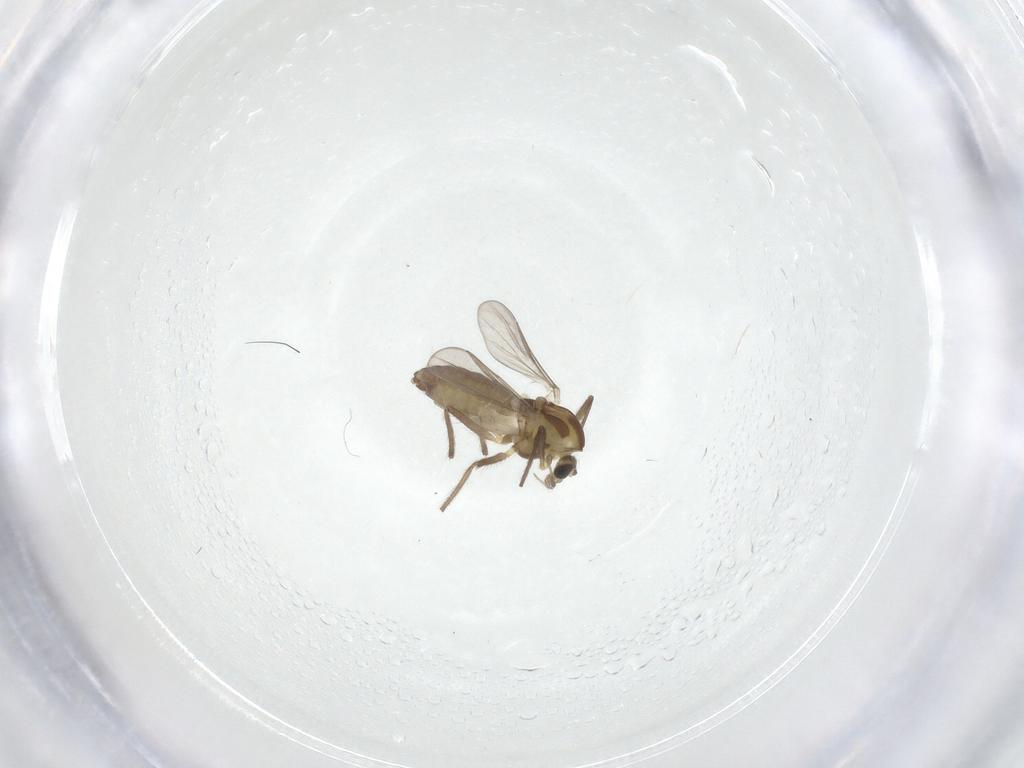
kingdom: Animalia
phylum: Arthropoda
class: Insecta
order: Diptera
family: Chironomidae
